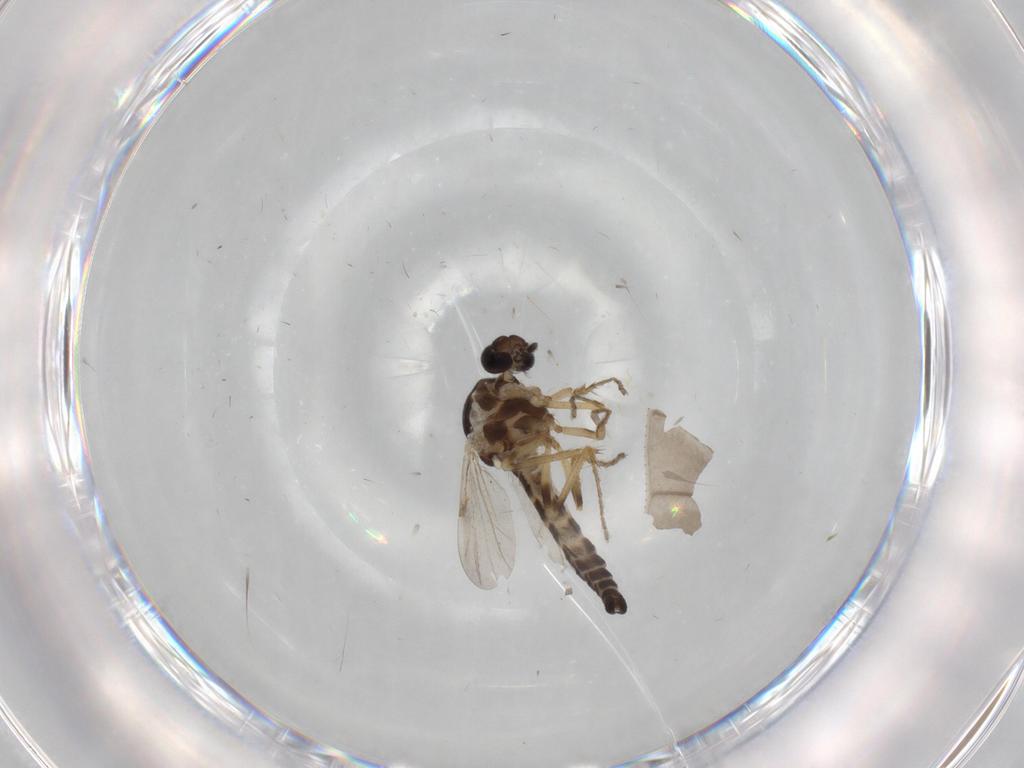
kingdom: Animalia
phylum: Arthropoda
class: Insecta
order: Diptera
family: Ceratopogonidae
